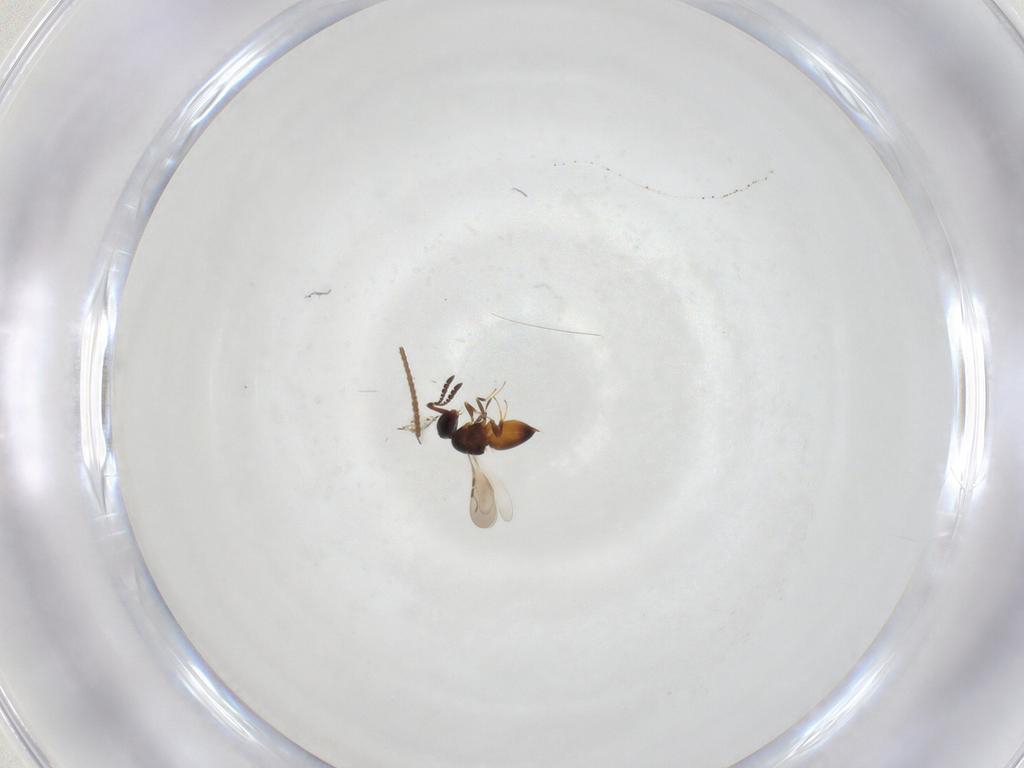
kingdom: Animalia
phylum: Arthropoda
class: Insecta
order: Hymenoptera
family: Ceraphronidae
